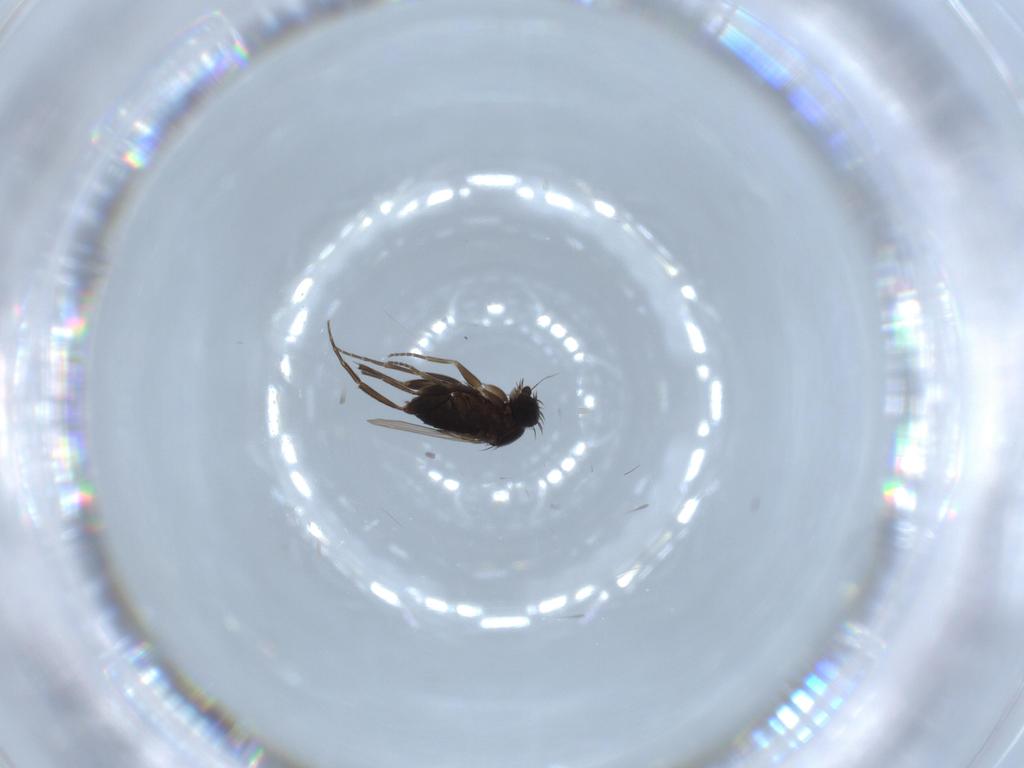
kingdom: Animalia
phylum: Arthropoda
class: Insecta
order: Diptera
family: Phoridae
